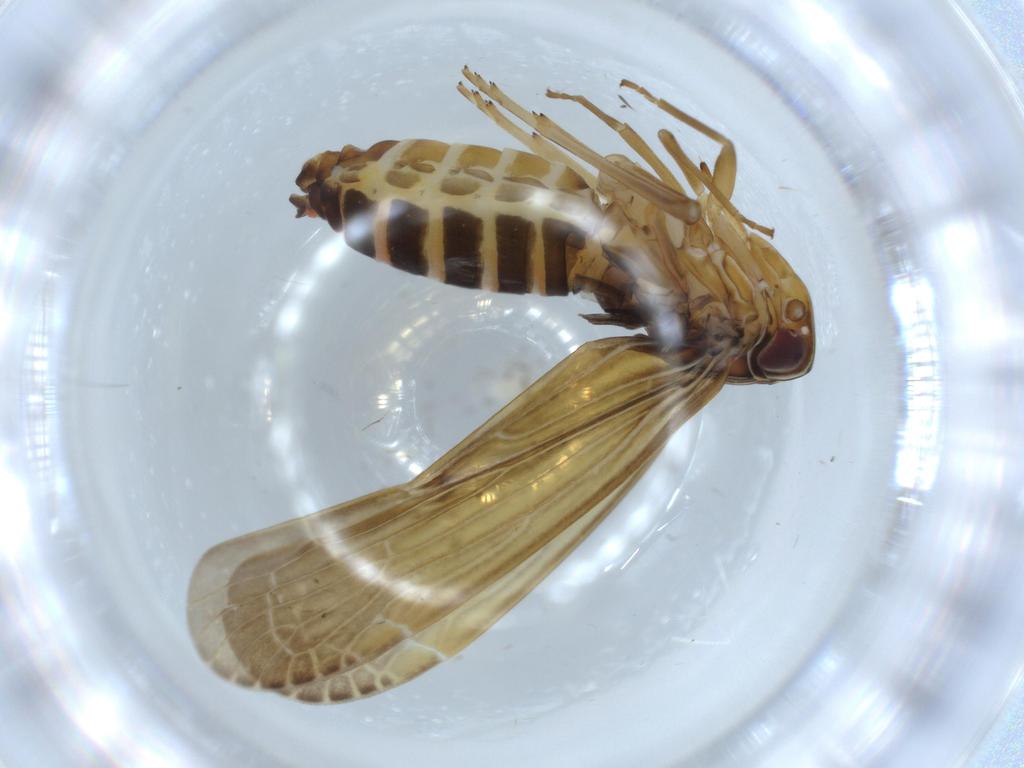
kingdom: Animalia
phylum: Arthropoda
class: Insecta
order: Hemiptera
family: Achilidae
